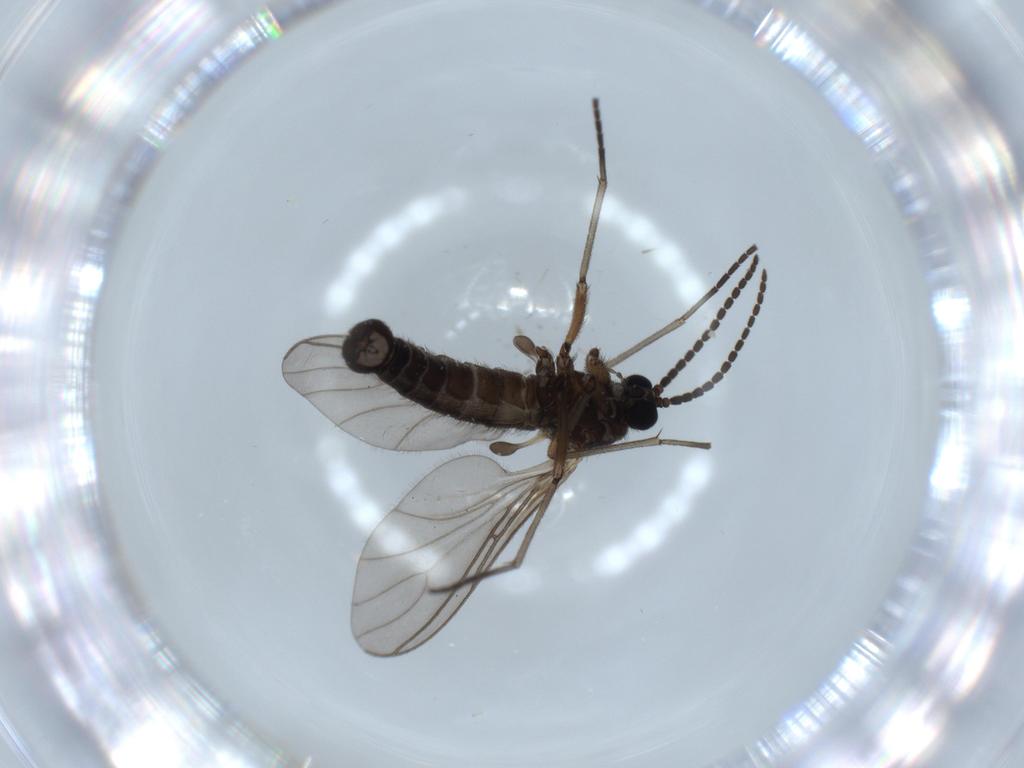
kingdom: Animalia
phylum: Arthropoda
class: Insecta
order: Diptera
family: Sciaridae
